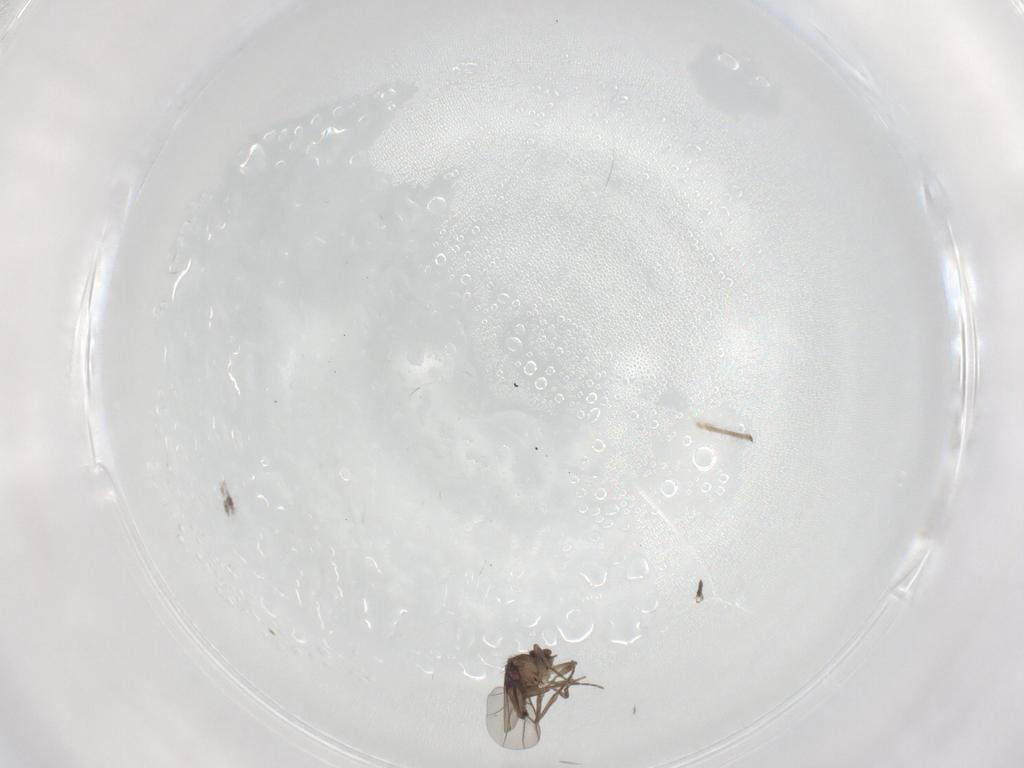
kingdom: Animalia
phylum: Arthropoda
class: Insecta
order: Diptera
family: Cecidomyiidae
